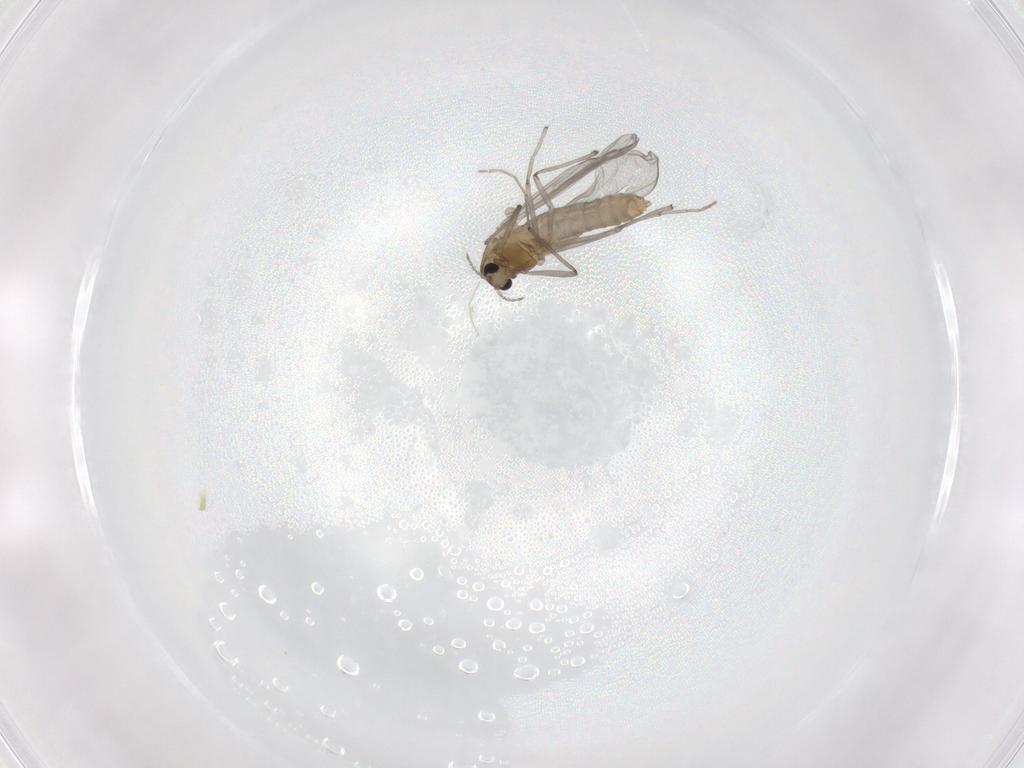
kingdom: Animalia
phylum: Arthropoda
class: Insecta
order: Diptera
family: Chironomidae
